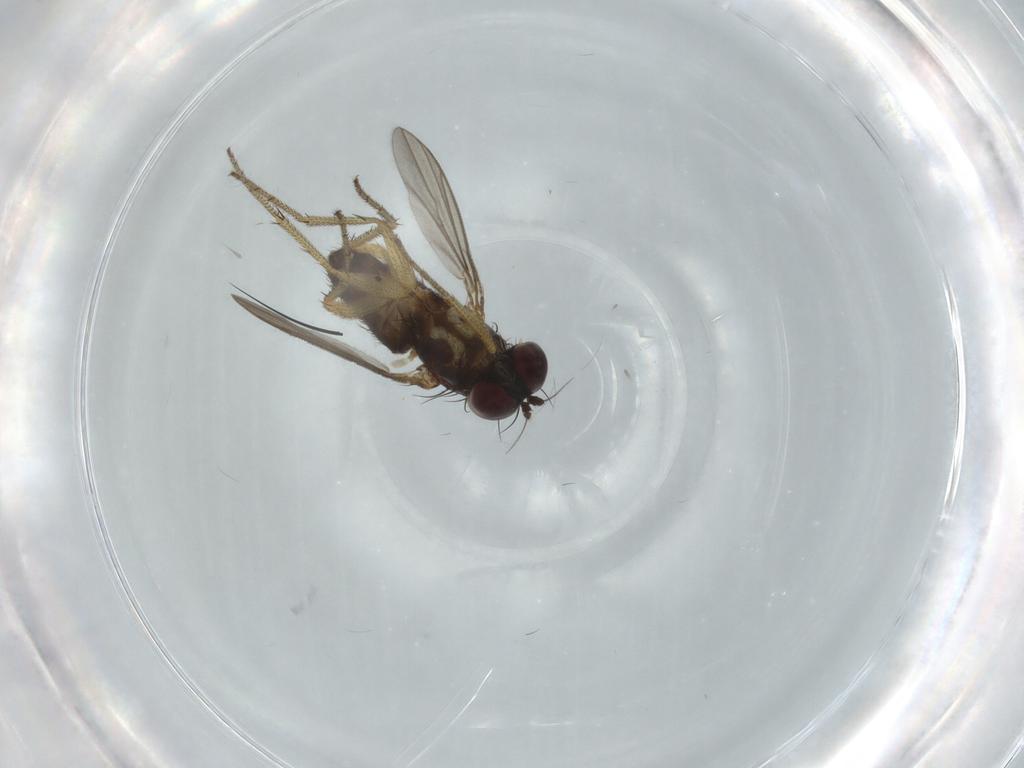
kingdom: Animalia
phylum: Arthropoda
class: Insecta
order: Diptera
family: Dolichopodidae
